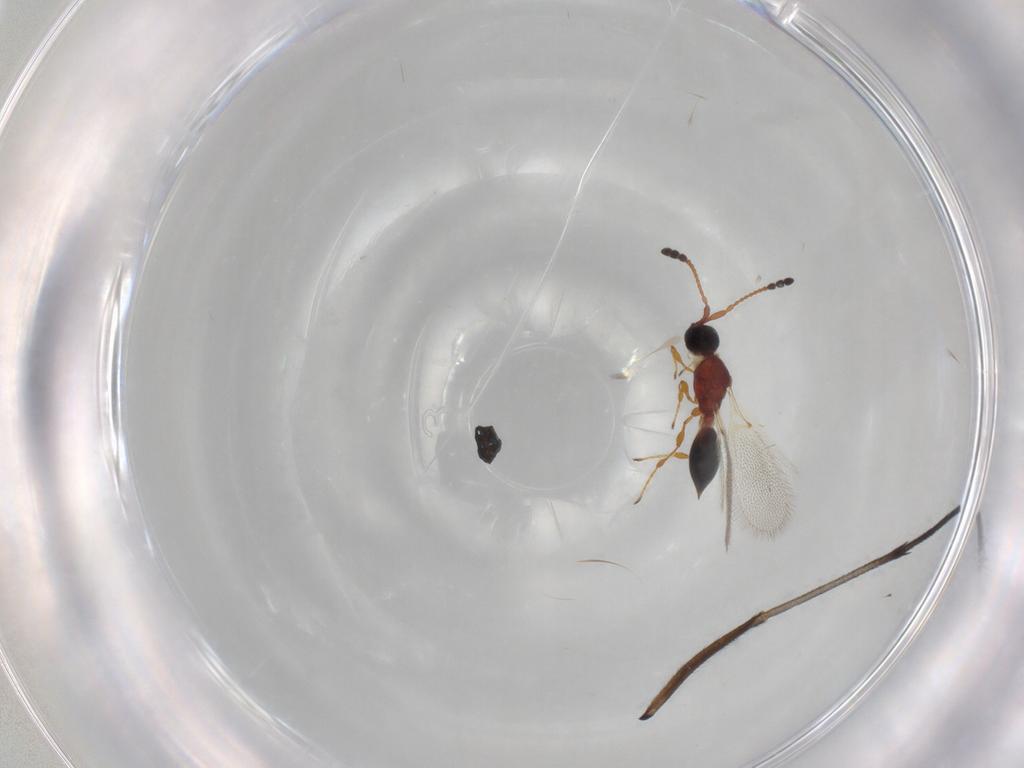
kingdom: Animalia
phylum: Arthropoda
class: Insecta
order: Hymenoptera
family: Diapriidae
